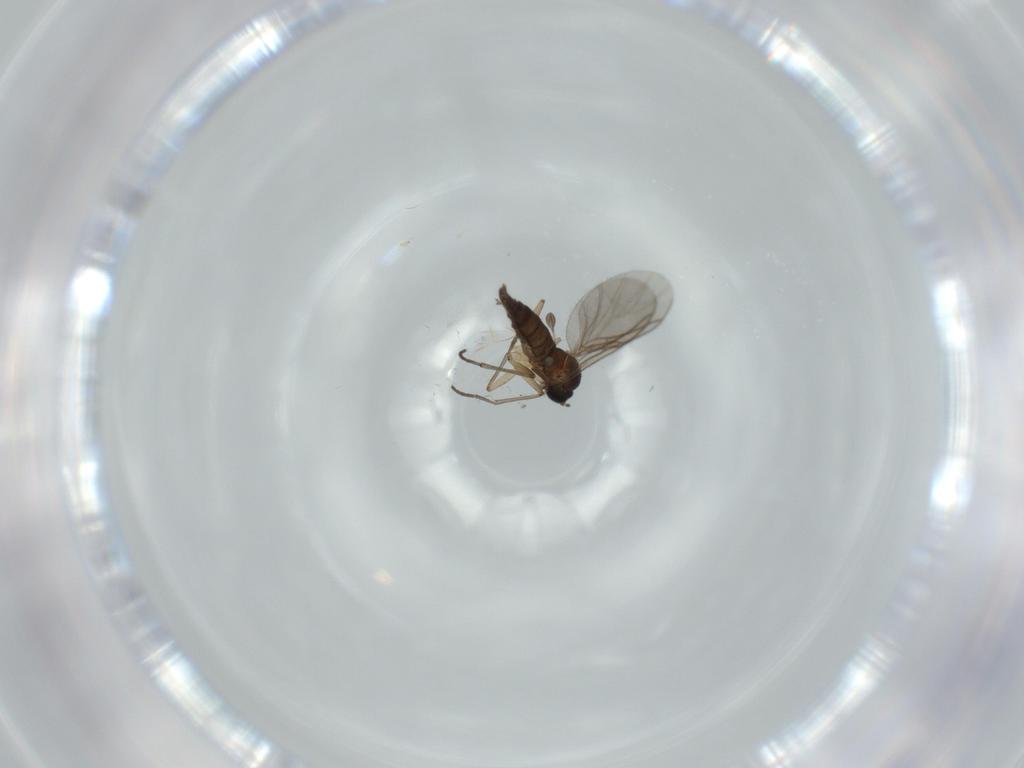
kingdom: Animalia
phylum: Arthropoda
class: Insecta
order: Diptera
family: Sciaridae
